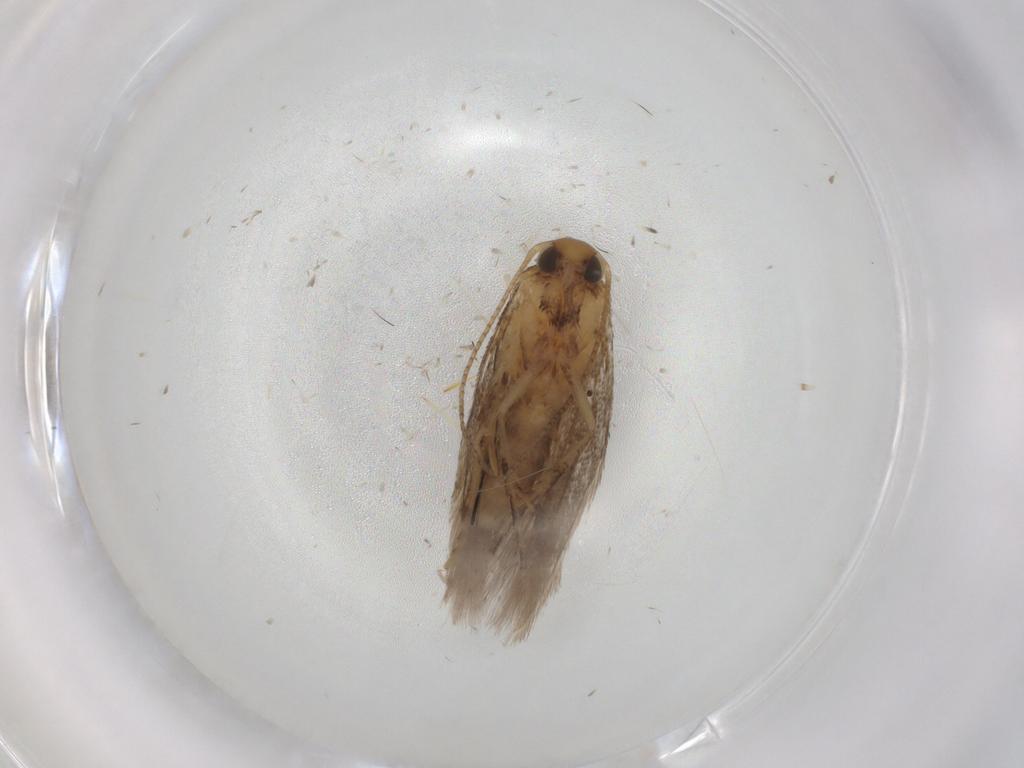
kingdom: Animalia
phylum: Arthropoda
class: Insecta
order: Lepidoptera
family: Gelechiidae
